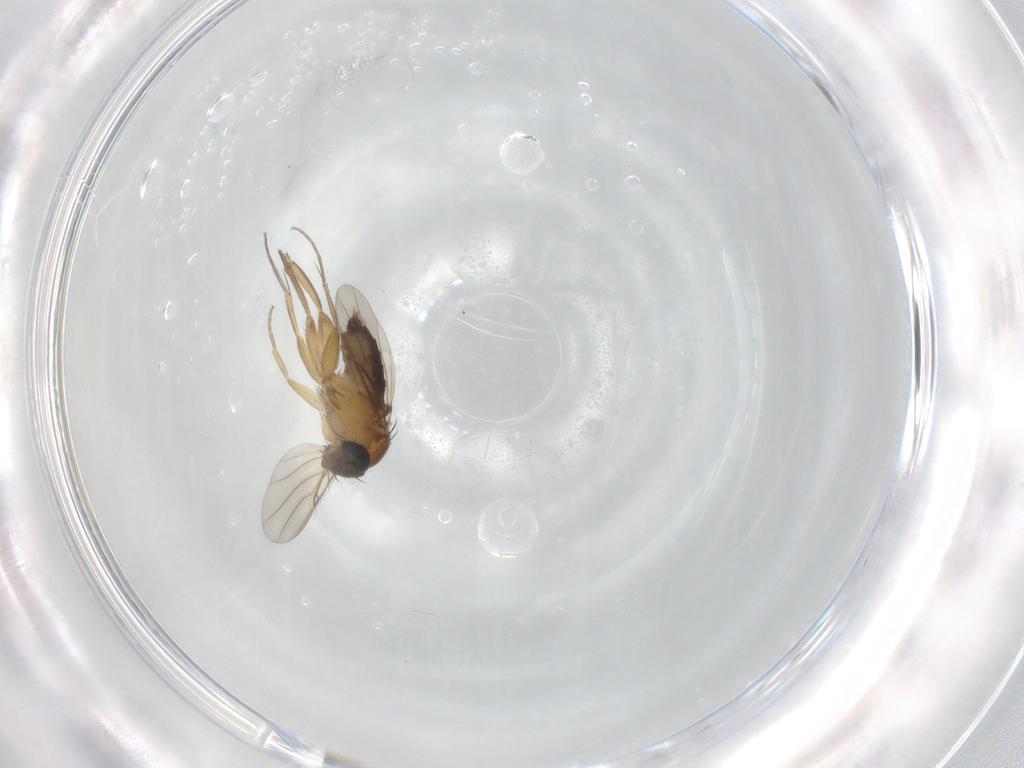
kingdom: Animalia
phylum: Arthropoda
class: Insecta
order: Diptera
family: Phoridae
